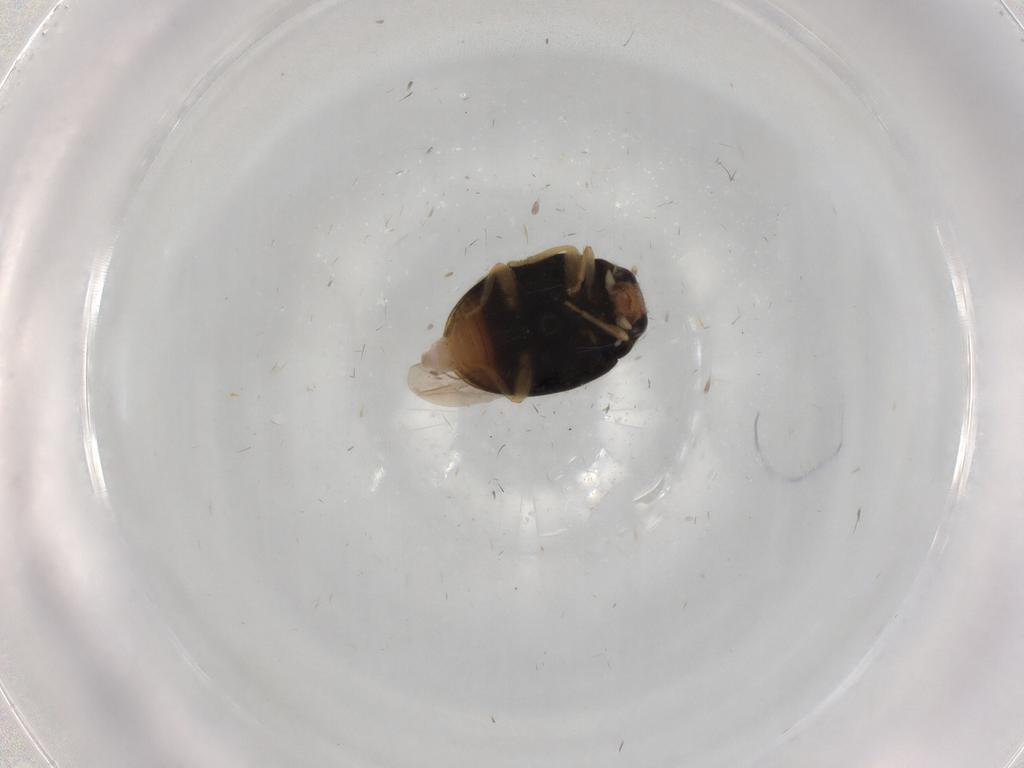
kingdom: Animalia
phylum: Arthropoda
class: Insecta
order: Coleoptera
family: Coccinellidae
